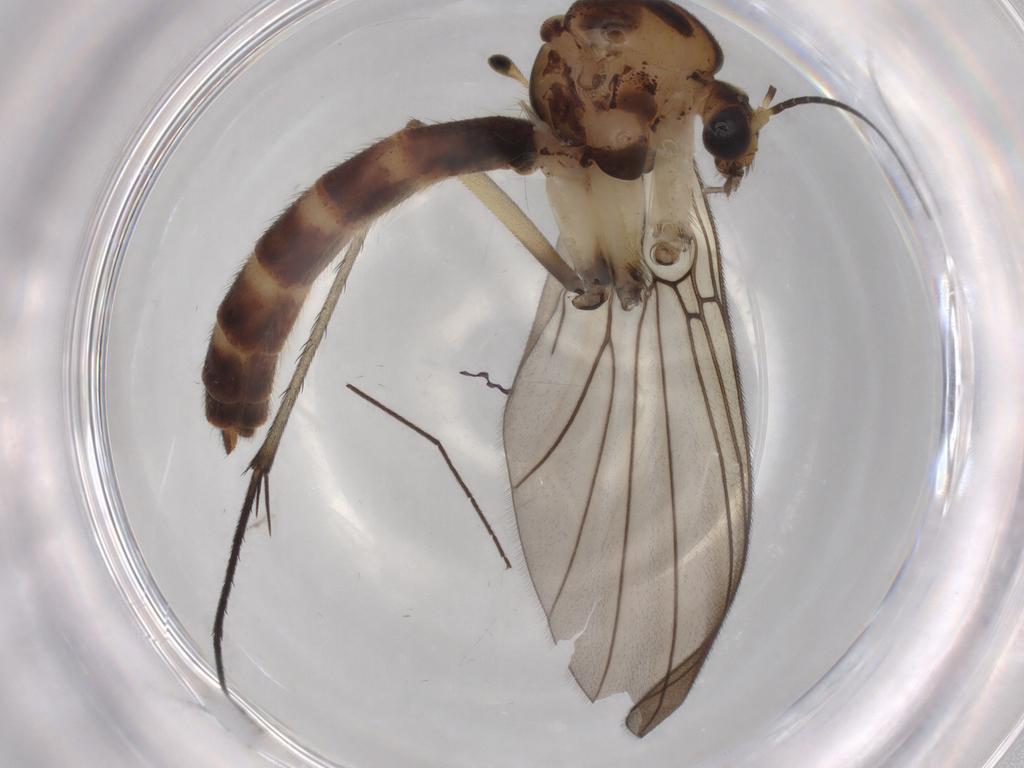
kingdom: Animalia
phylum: Arthropoda
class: Insecta
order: Diptera
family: Mycetophilidae
